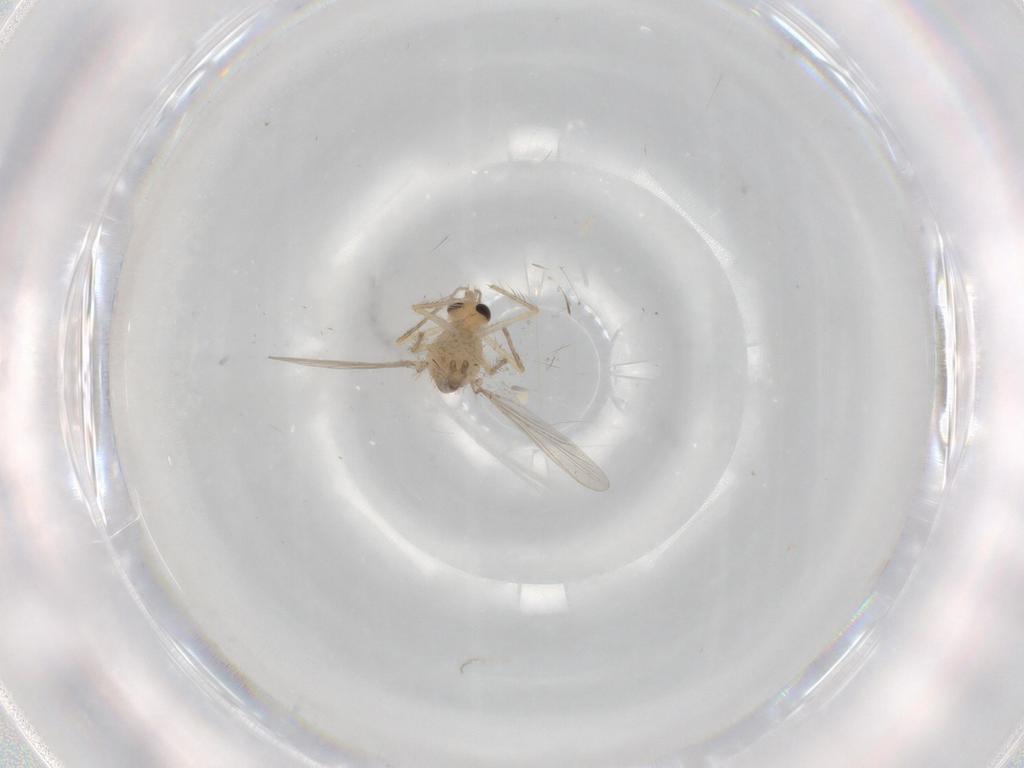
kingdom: Animalia
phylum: Arthropoda
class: Insecta
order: Diptera
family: Chironomidae
